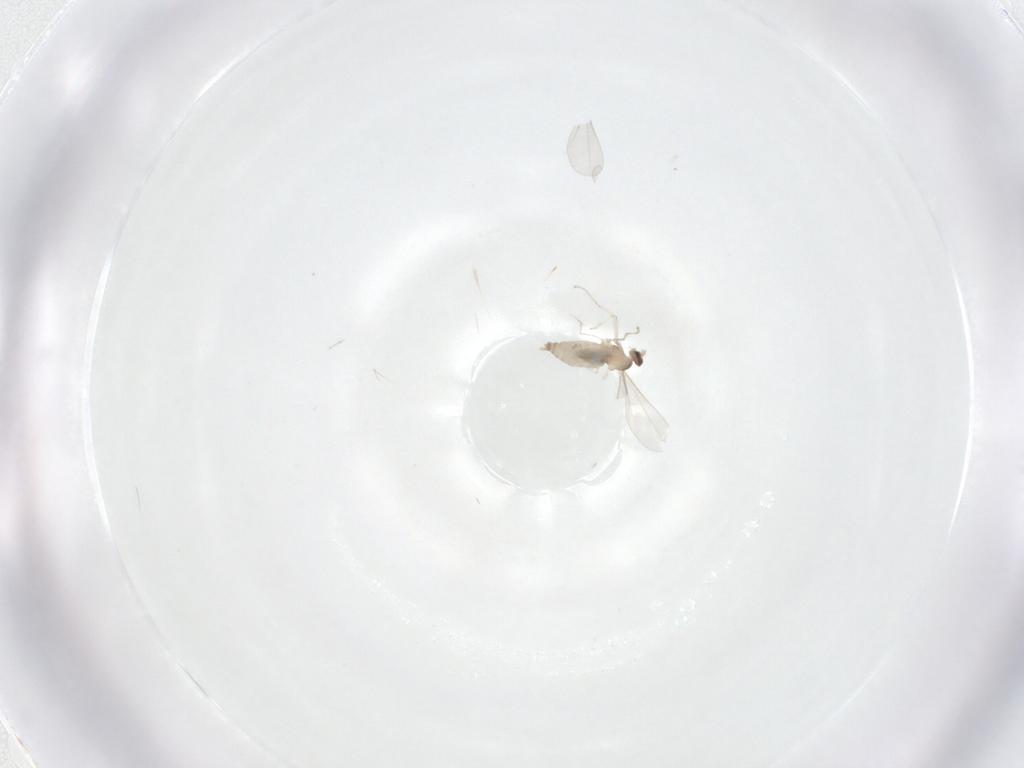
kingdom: Animalia
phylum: Arthropoda
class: Insecta
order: Diptera
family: Cecidomyiidae
